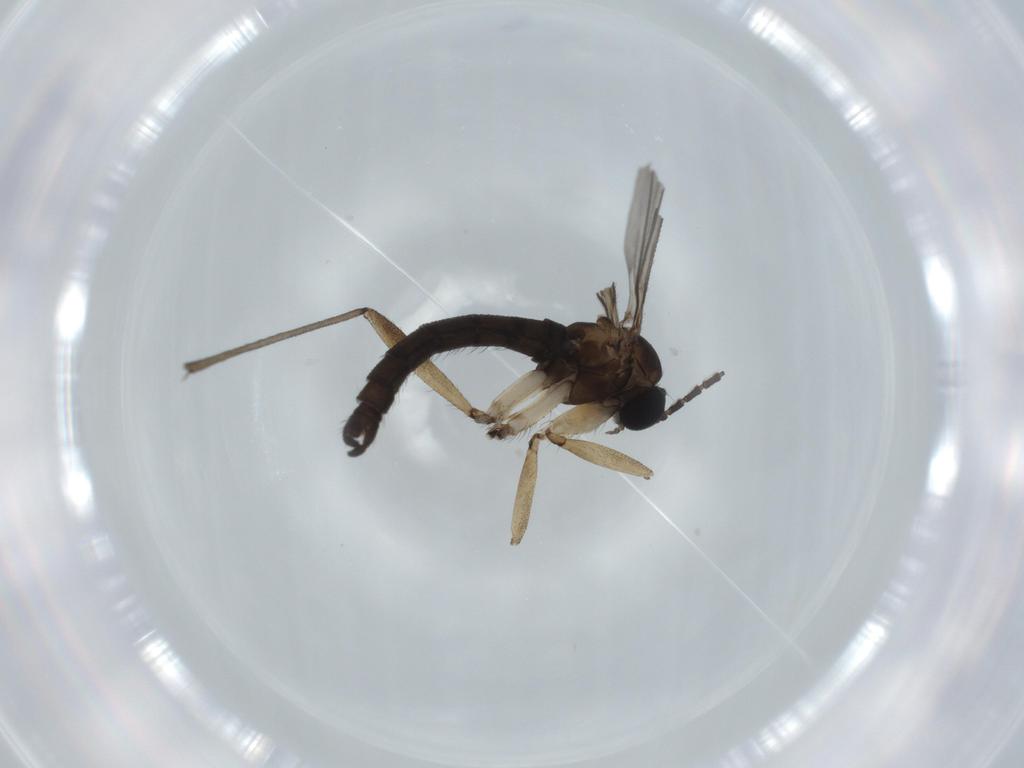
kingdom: Animalia
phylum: Arthropoda
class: Insecta
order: Diptera
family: Sciaridae
